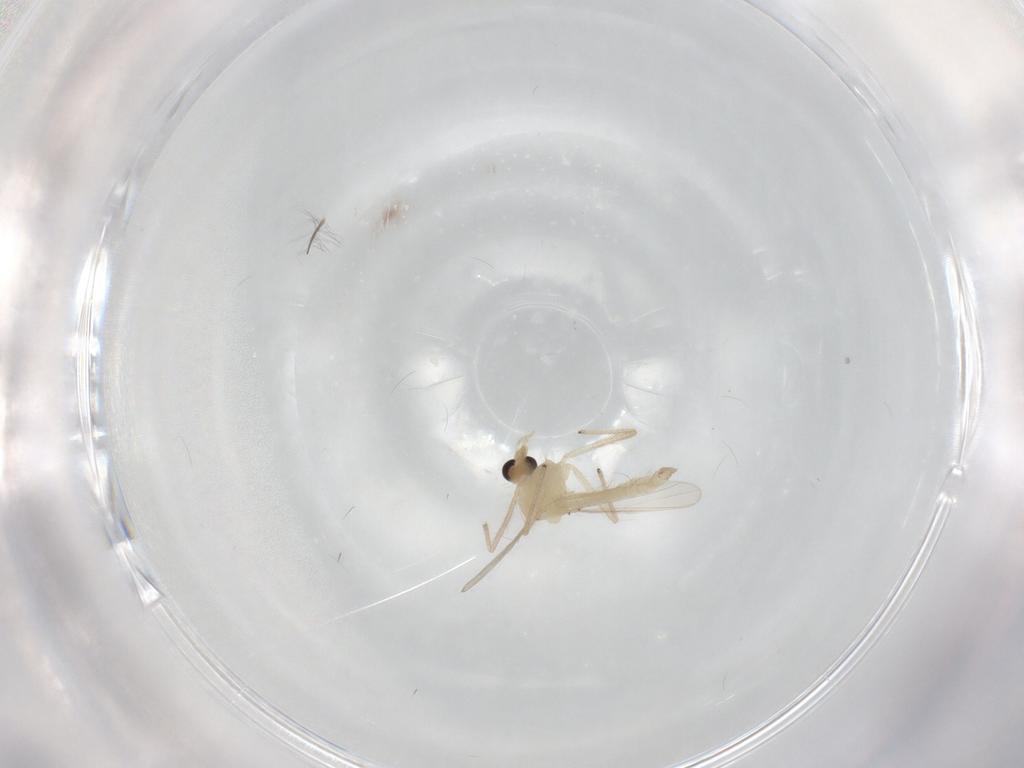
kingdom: Animalia
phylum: Arthropoda
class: Insecta
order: Diptera
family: Chironomidae
